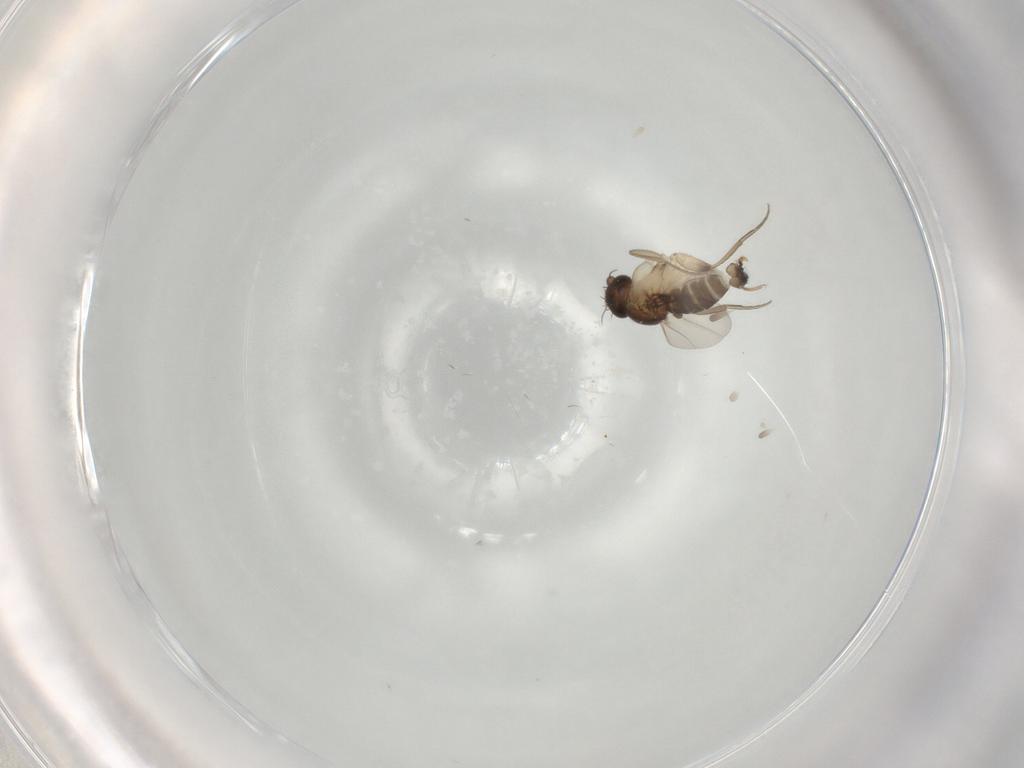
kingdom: Animalia
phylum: Arthropoda
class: Insecta
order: Diptera
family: Phoridae
